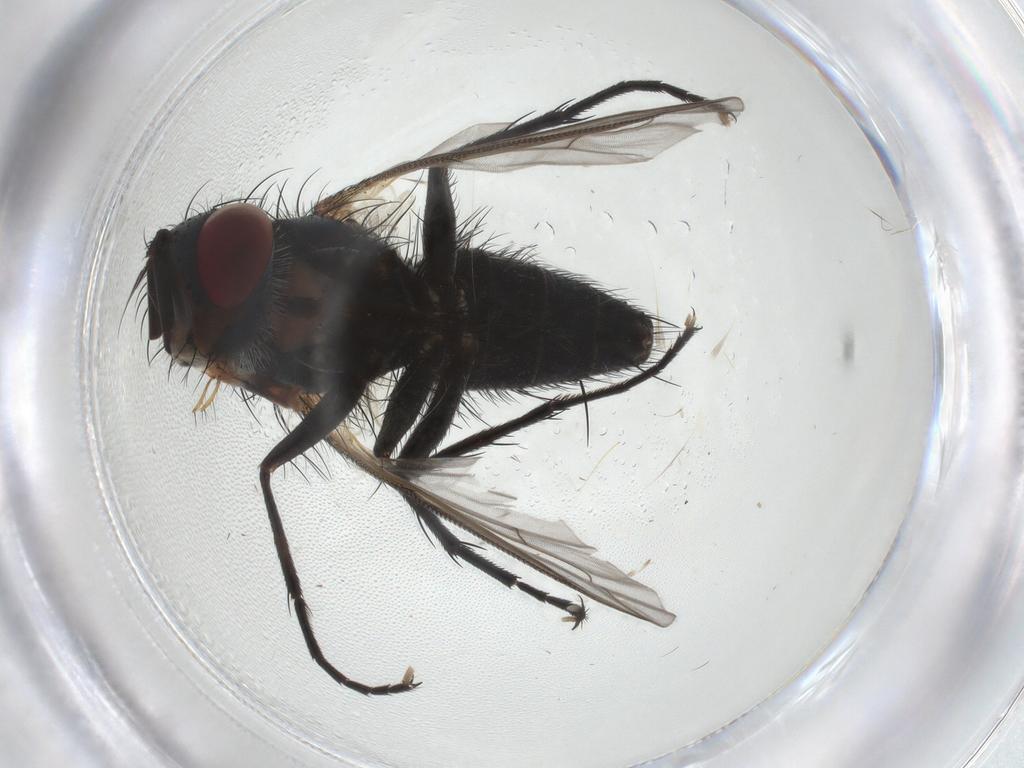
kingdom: Animalia
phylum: Arthropoda
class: Insecta
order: Diptera
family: Tachinidae
